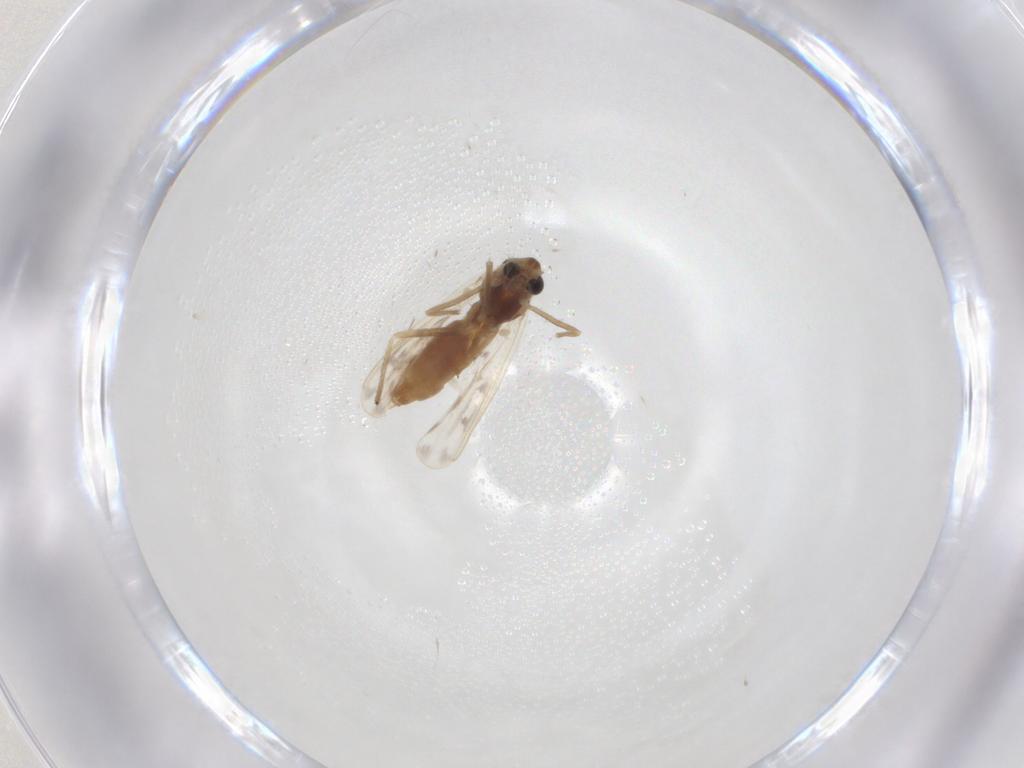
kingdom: Animalia
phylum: Arthropoda
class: Insecta
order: Diptera
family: Chironomidae
